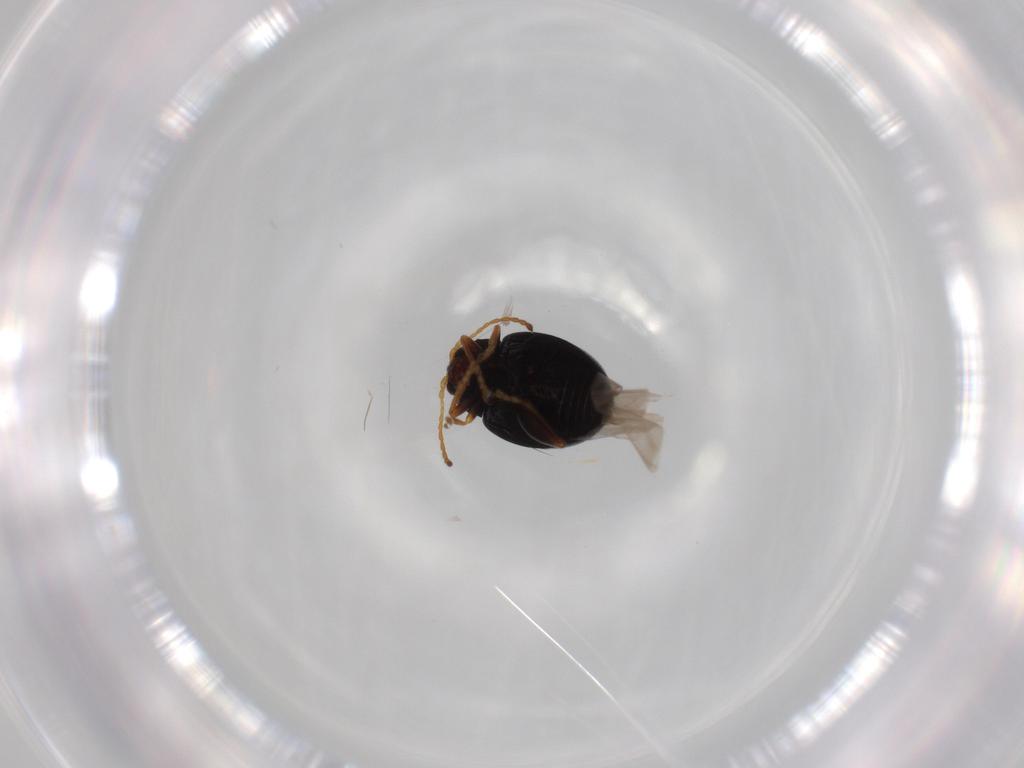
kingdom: Animalia
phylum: Arthropoda
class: Insecta
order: Coleoptera
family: Chrysomelidae
